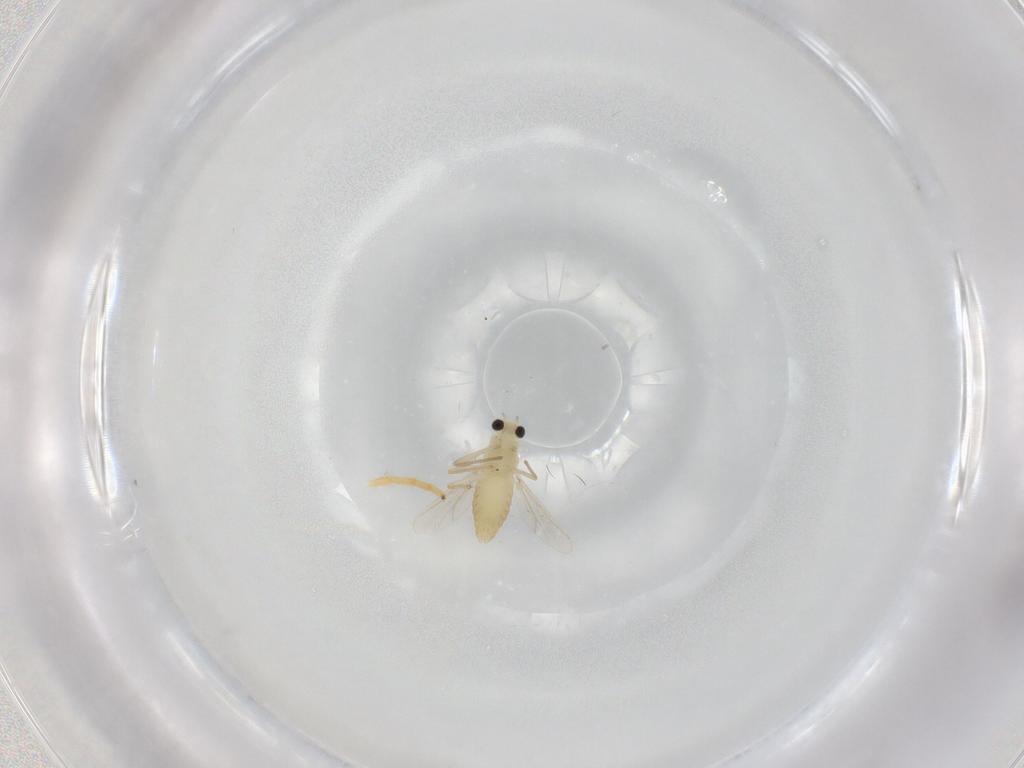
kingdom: Animalia
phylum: Arthropoda
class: Insecta
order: Diptera
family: Chironomidae
